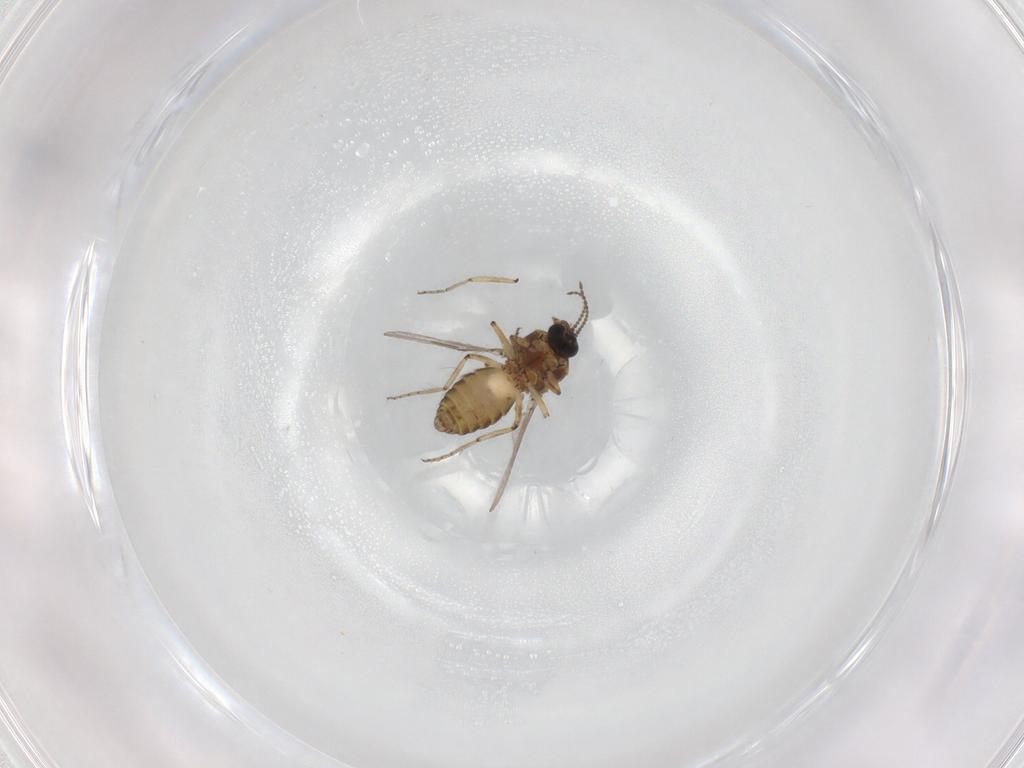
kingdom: Animalia
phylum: Arthropoda
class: Insecta
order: Diptera
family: Ceratopogonidae
